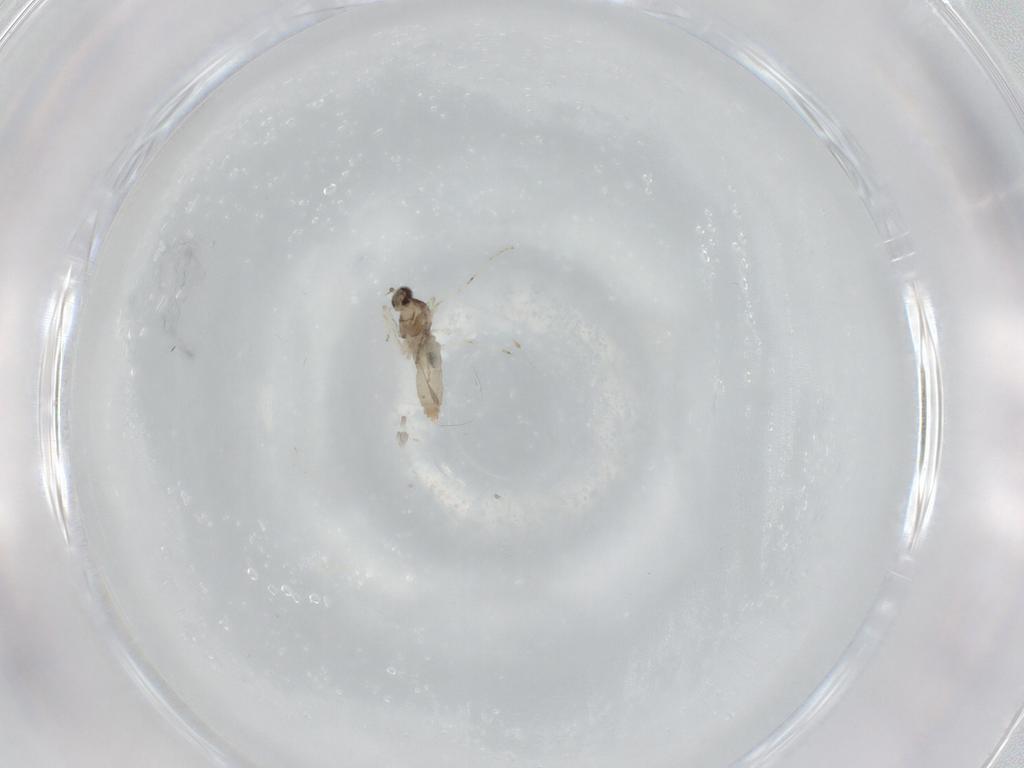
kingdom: Animalia
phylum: Arthropoda
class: Insecta
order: Diptera
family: Cecidomyiidae
